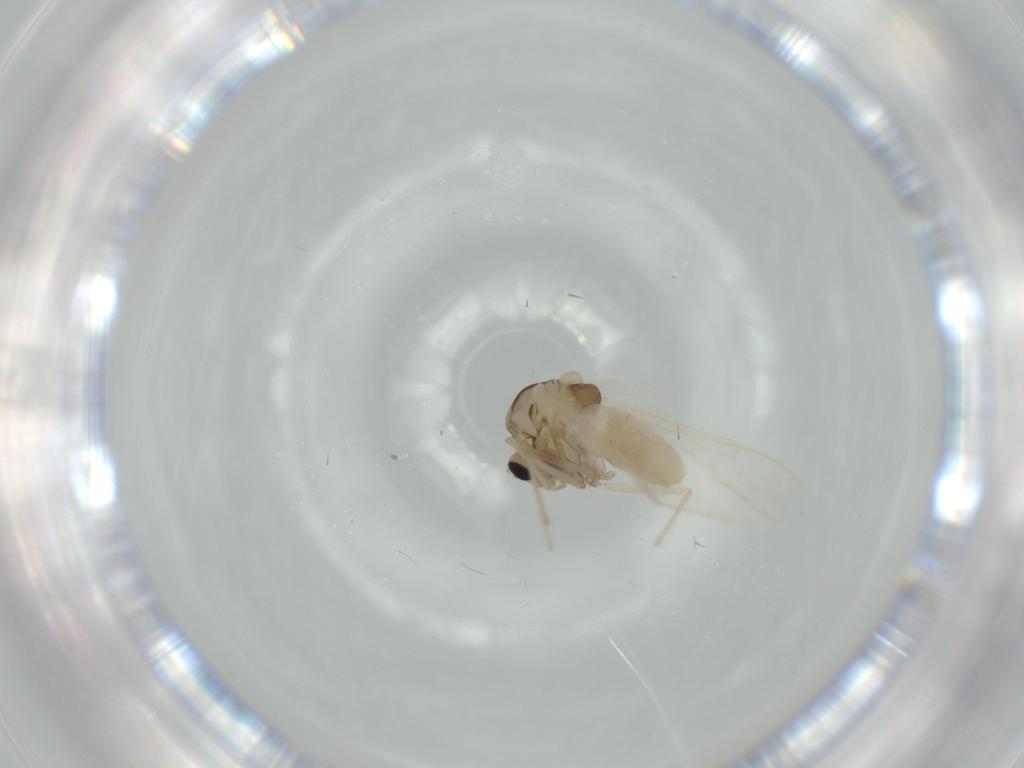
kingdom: Animalia
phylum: Arthropoda
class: Insecta
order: Diptera
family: Chironomidae
